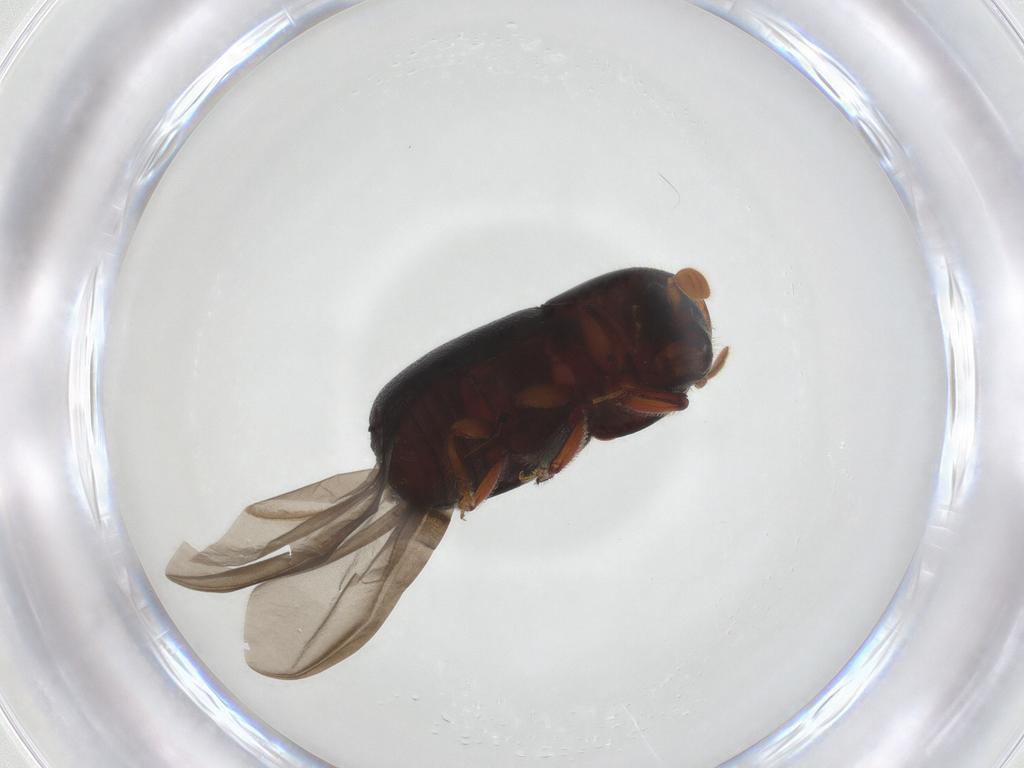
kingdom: Animalia
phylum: Arthropoda
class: Insecta
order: Coleoptera
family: Curculionidae
